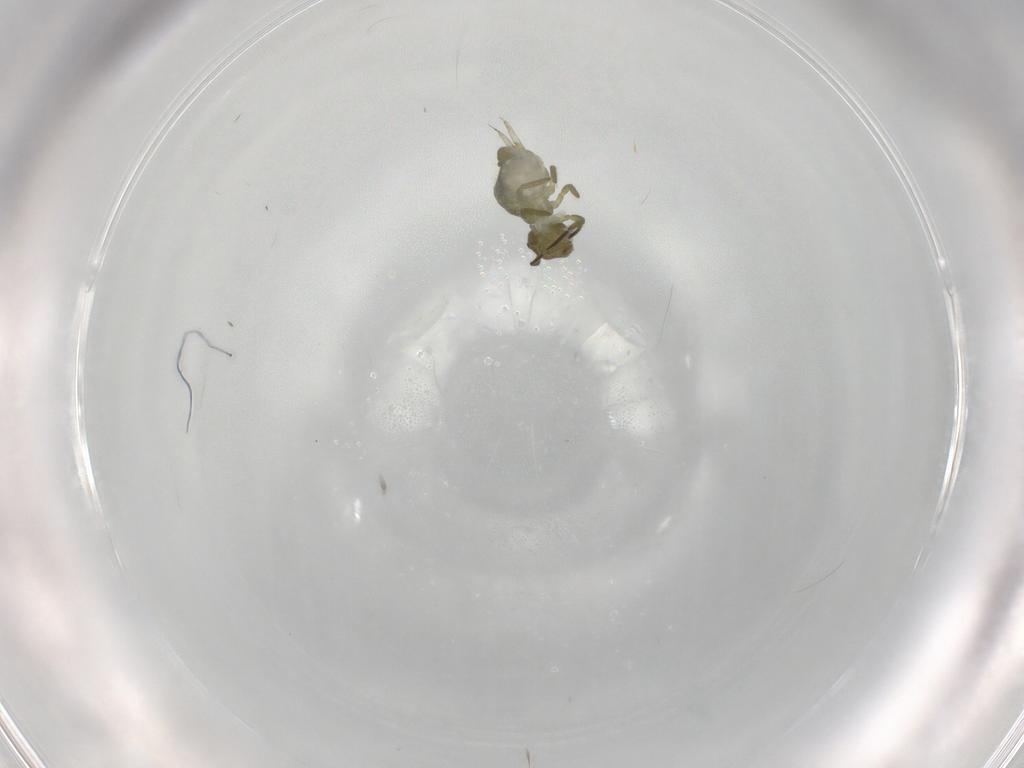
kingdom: Animalia
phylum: Arthropoda
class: Collembola
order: Symphypleona
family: Sminthuridae
